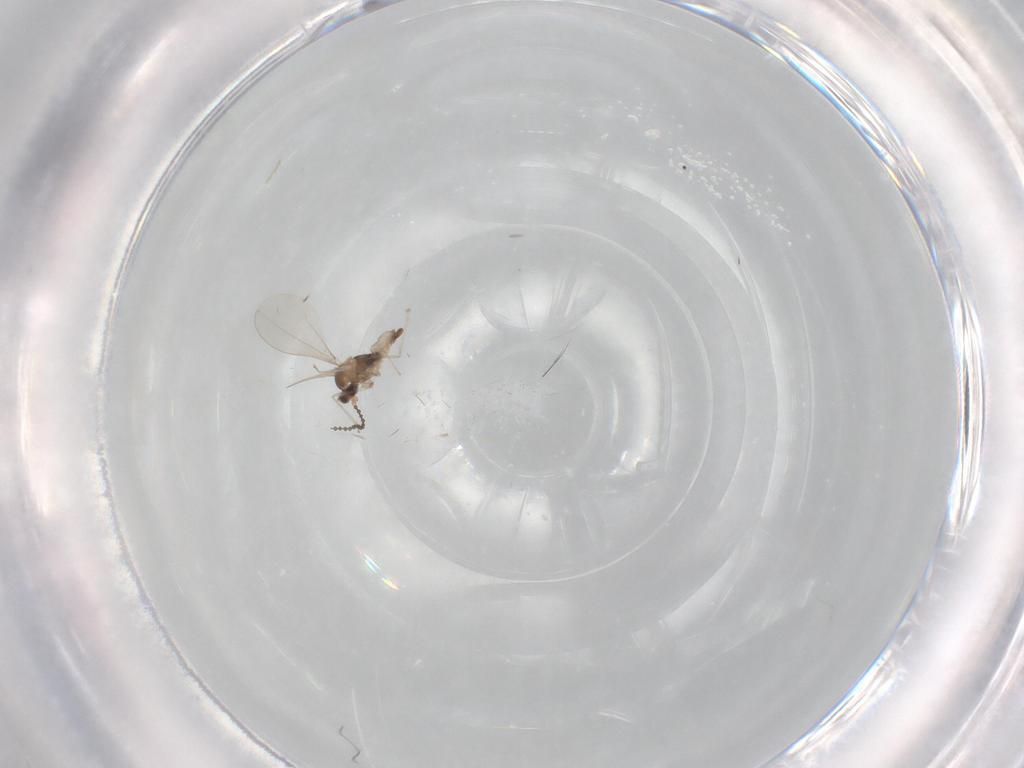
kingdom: Animalia
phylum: Arthropoda
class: Insecta
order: Diptera
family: Cecidomyiidae
